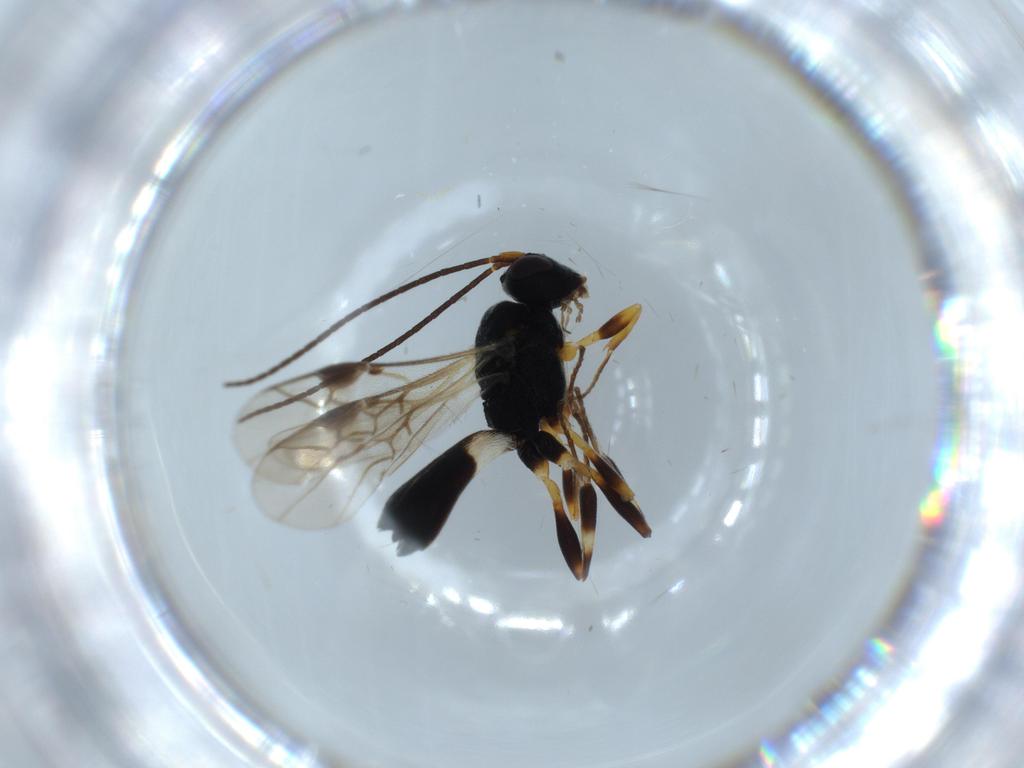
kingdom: Animalia
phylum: Arthropoda
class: Insecta
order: Hymenoptera
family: Braconidae
